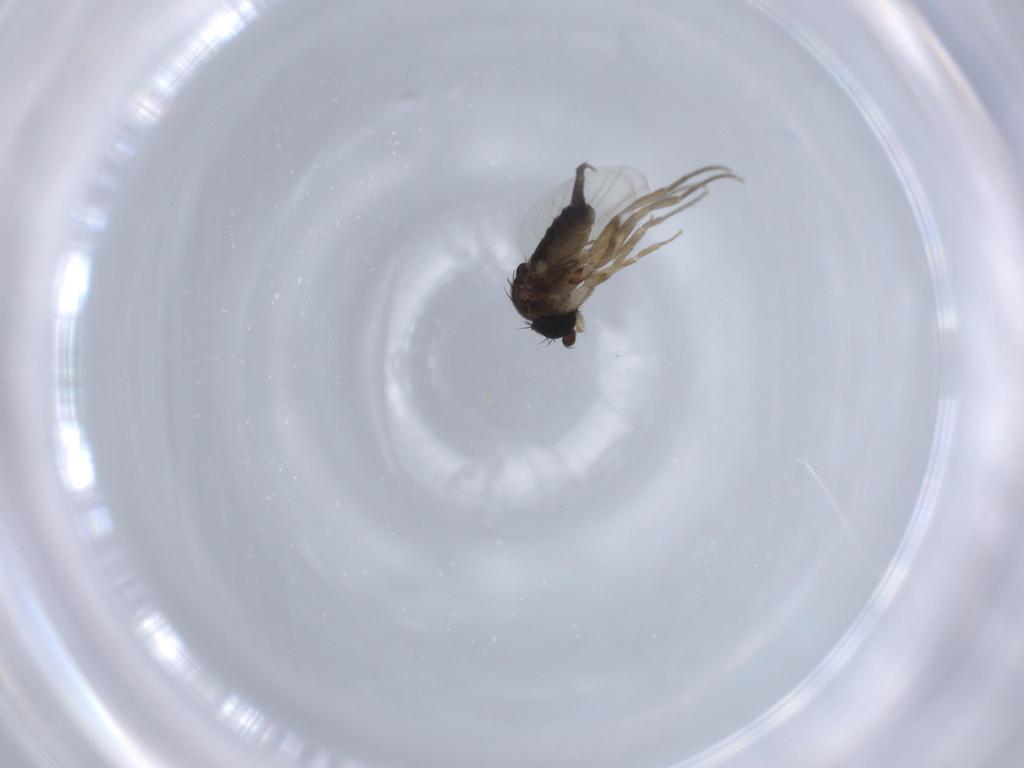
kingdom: Animalia
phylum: Arthropoda
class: Insecta
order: Diptera
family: Phoridae
